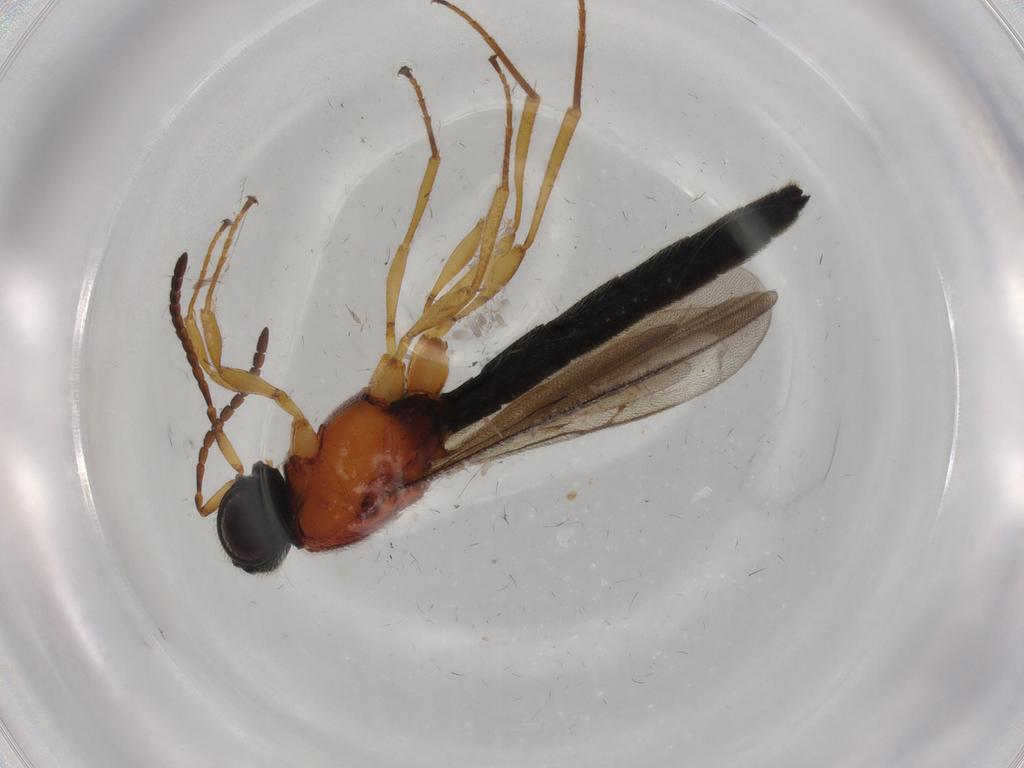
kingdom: Animalia
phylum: Arthropoda
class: Insecta
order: Hymenoptera
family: Scelionidae
